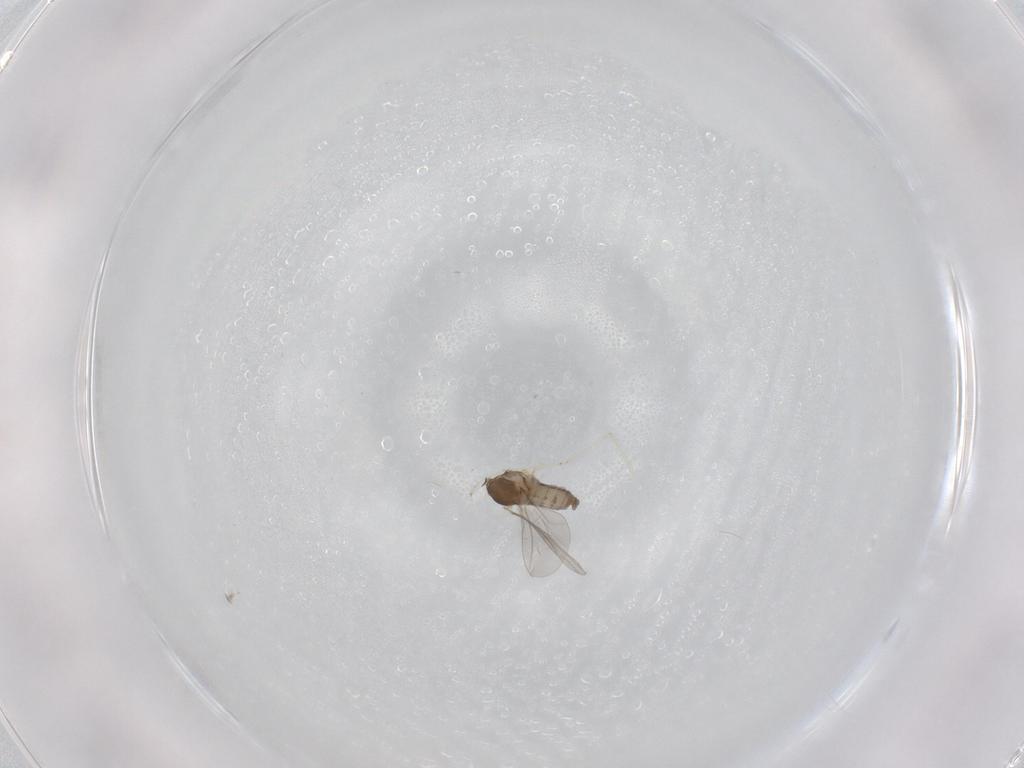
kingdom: Animalia
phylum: Arthropoda
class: Insecta
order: Diptera
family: Cecidomyiidae
